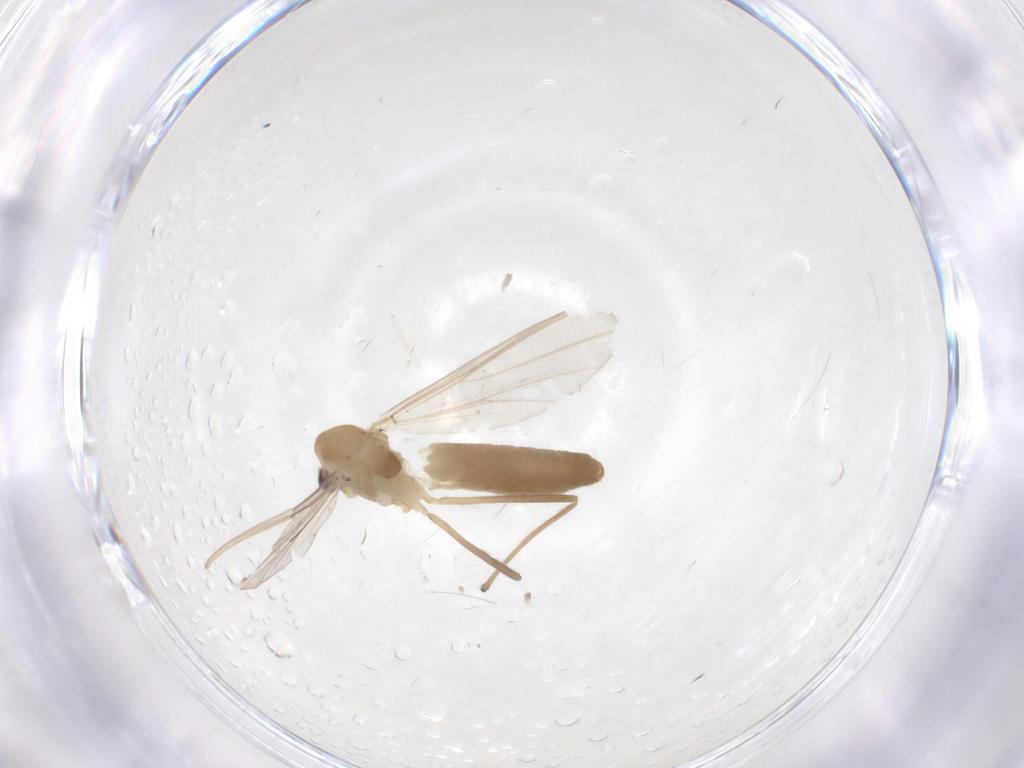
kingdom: Animalia
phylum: Arthropoda
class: Insecta
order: Diptera
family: Chironomidae
